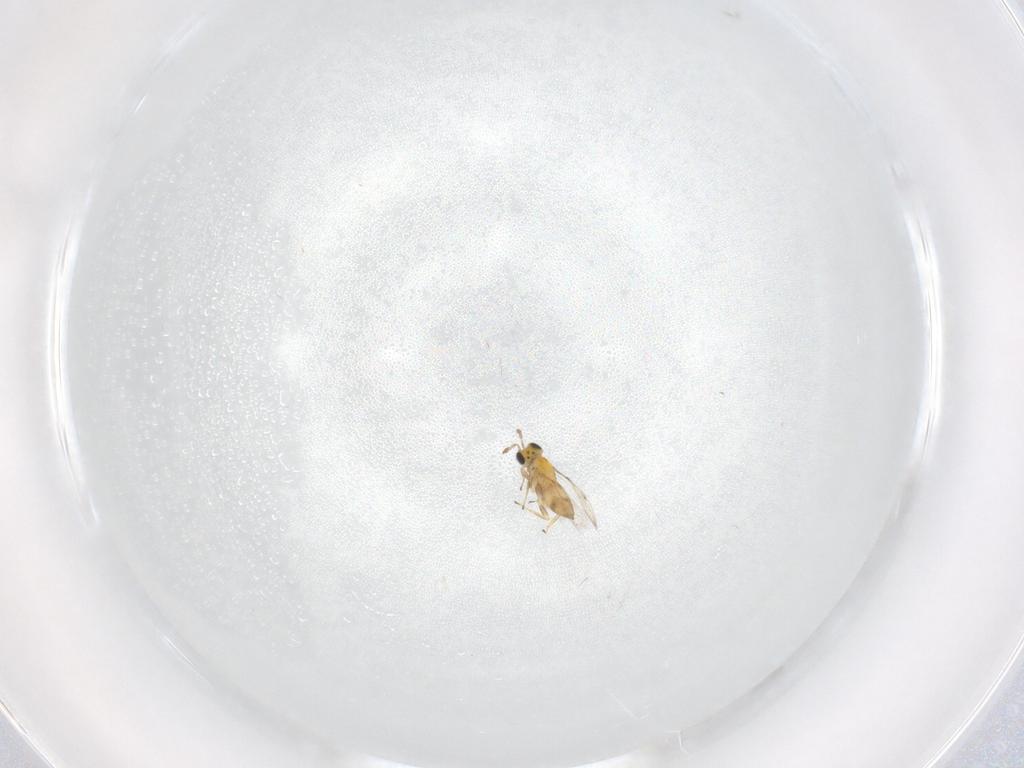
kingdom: Animalia
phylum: Arthropoda
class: Insecta
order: Hymenoptera
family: Trichogrammatidae
